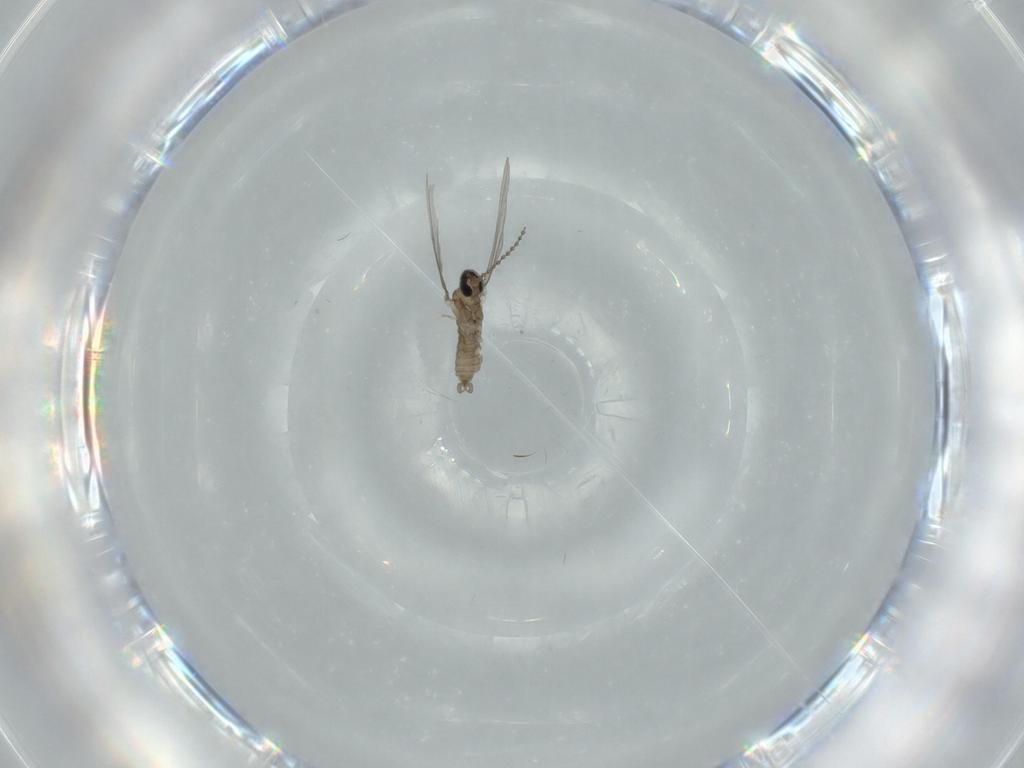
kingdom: Animalia
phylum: Arthropoda
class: Insecta
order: Diptera
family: Cecidomyiidae
